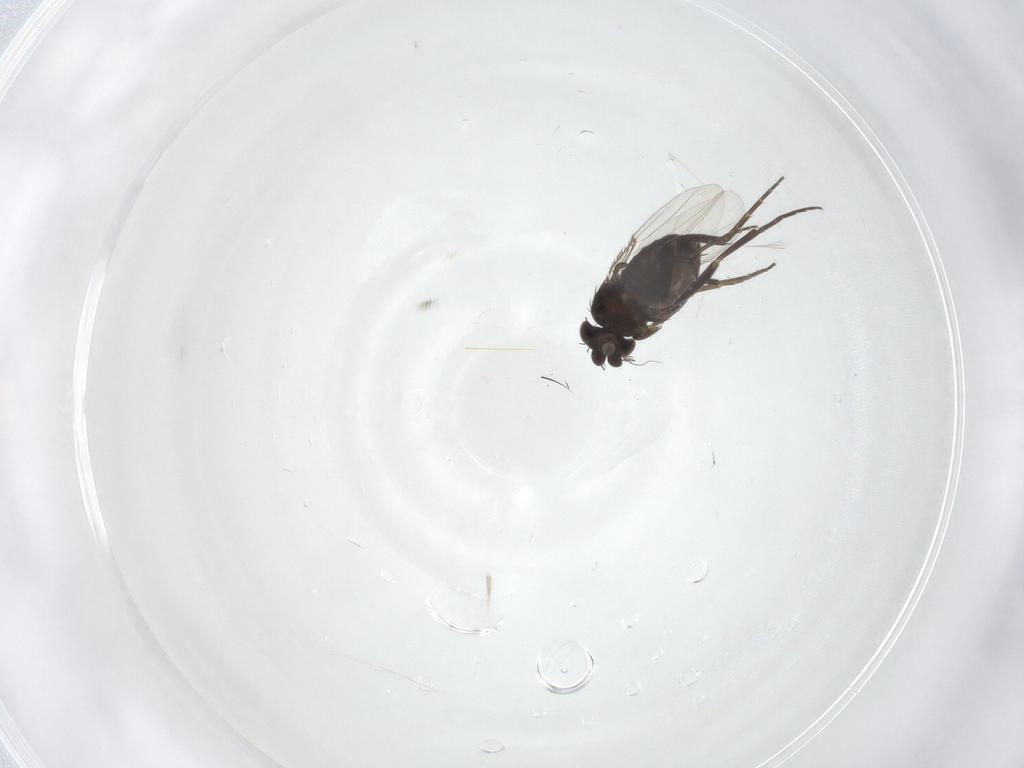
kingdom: Animalia
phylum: Arthropoda
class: Insecta
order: Diptera
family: Phoridae
